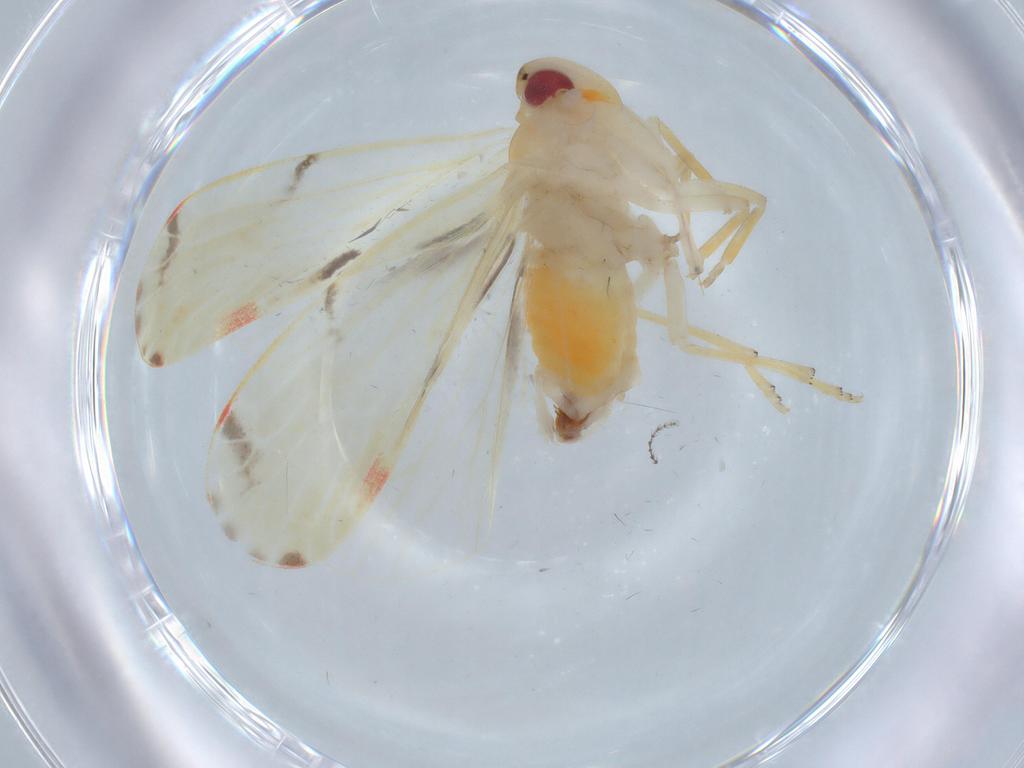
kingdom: Animalia
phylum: Arthropoda
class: Insecta
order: Hemiptera
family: Derbidae
